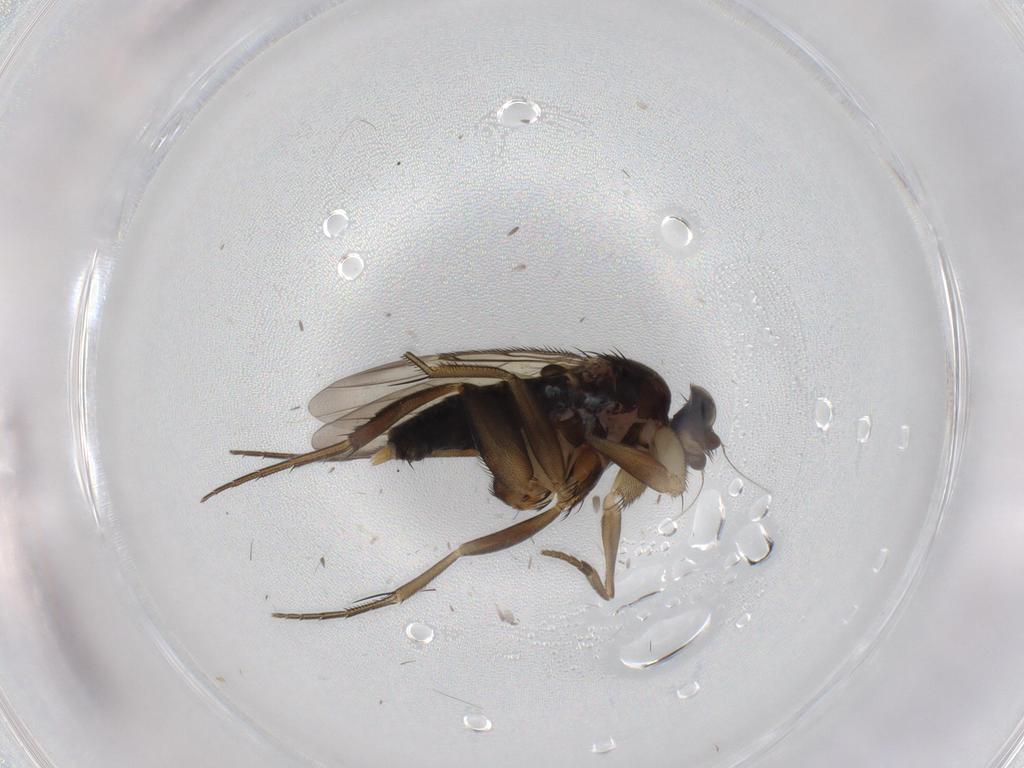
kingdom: Animalia
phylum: Arthropoda
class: Insecta
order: Diptera
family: Phoridae
